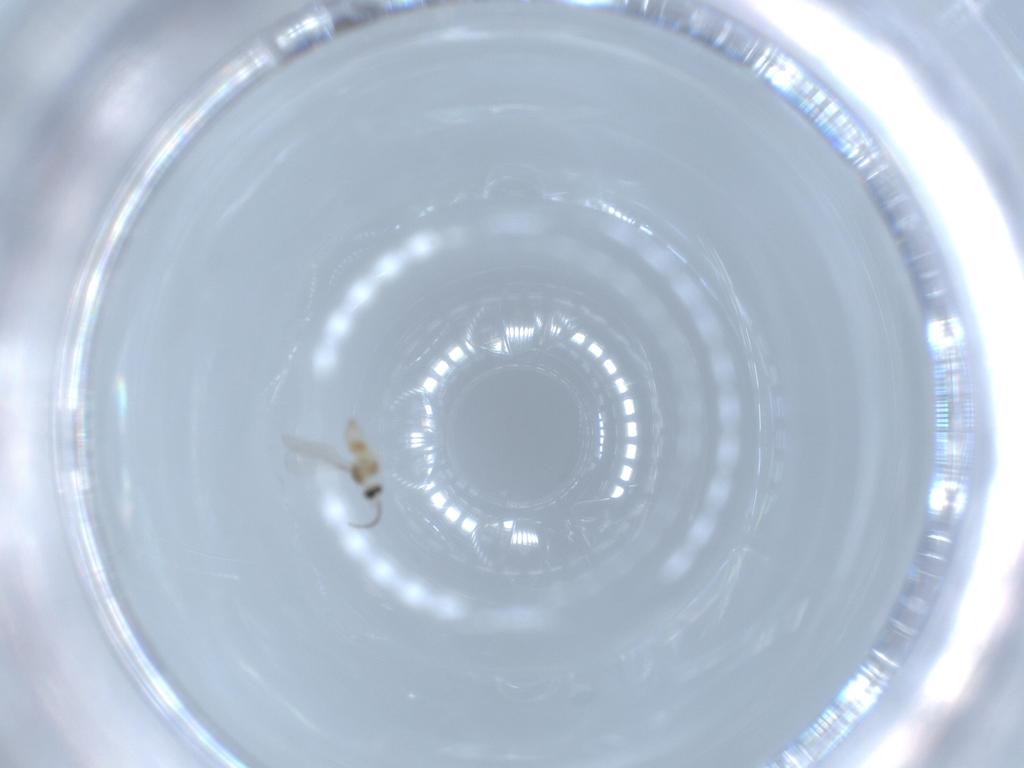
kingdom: Animalia
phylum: Arthropoda
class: Insecta
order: Diptera
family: Cecidomyiidae
